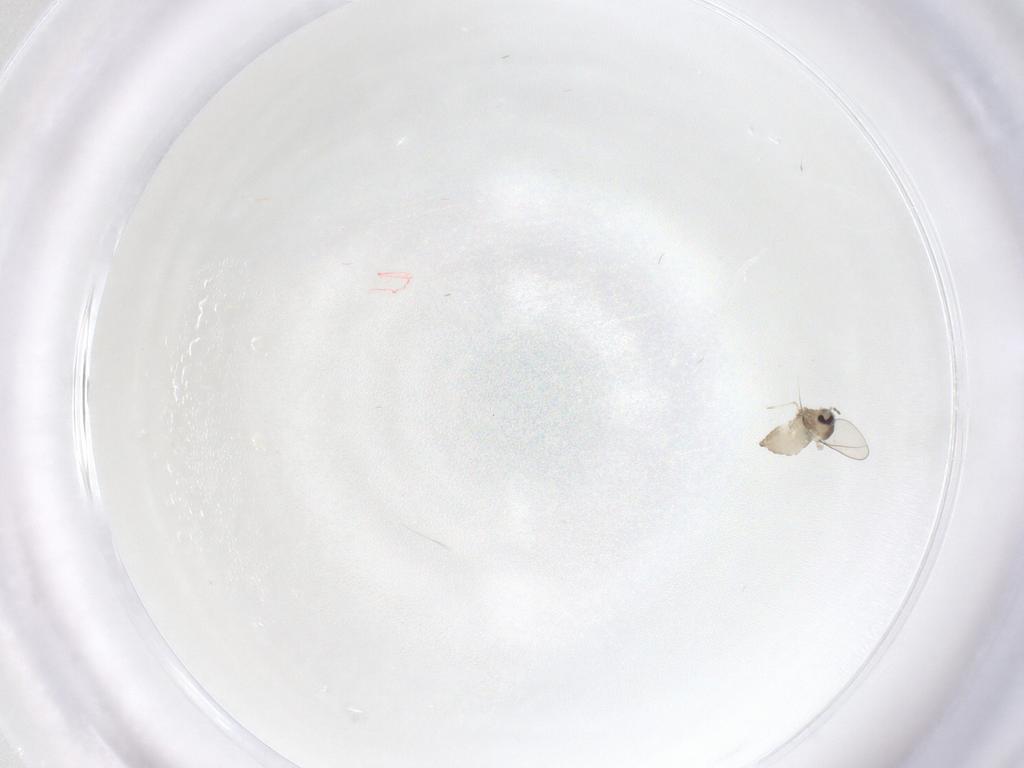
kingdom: Animalia
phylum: Arthropoda
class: Insecta
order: Diptera
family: Cecidomyiidae
